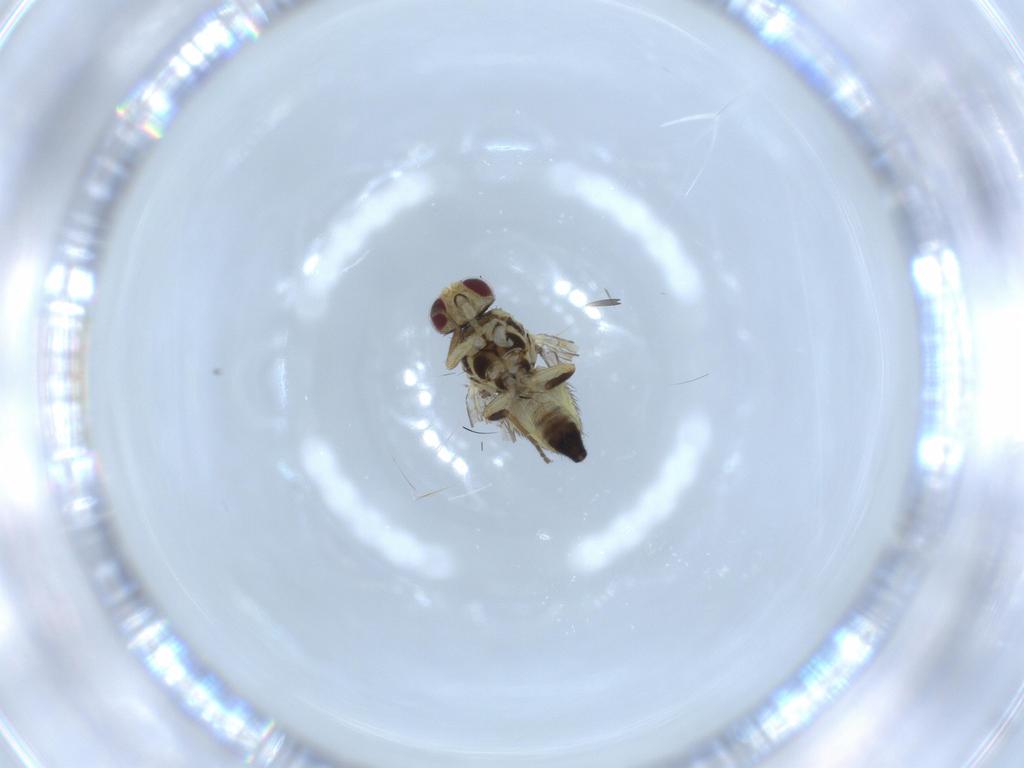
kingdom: Animalia
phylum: Arthropoda
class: Insecta
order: Diptera
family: Agromyzidae
